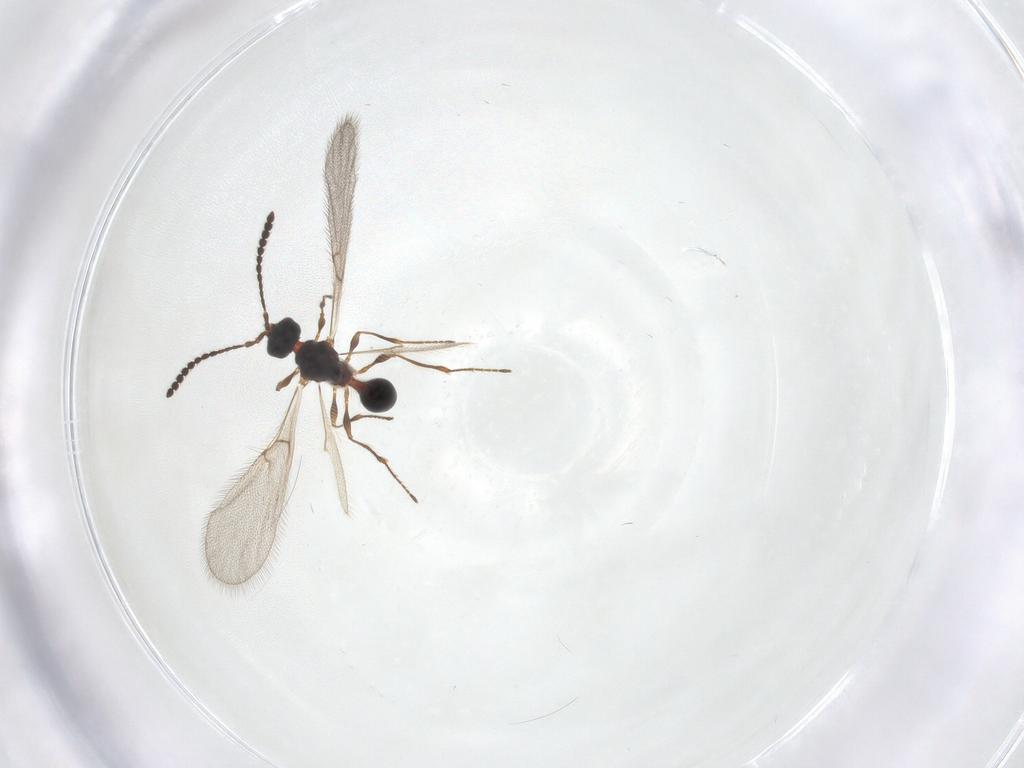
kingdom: Animalia
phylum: Arthropoda
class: Insecta
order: Hymenoptera
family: Diapriidae
